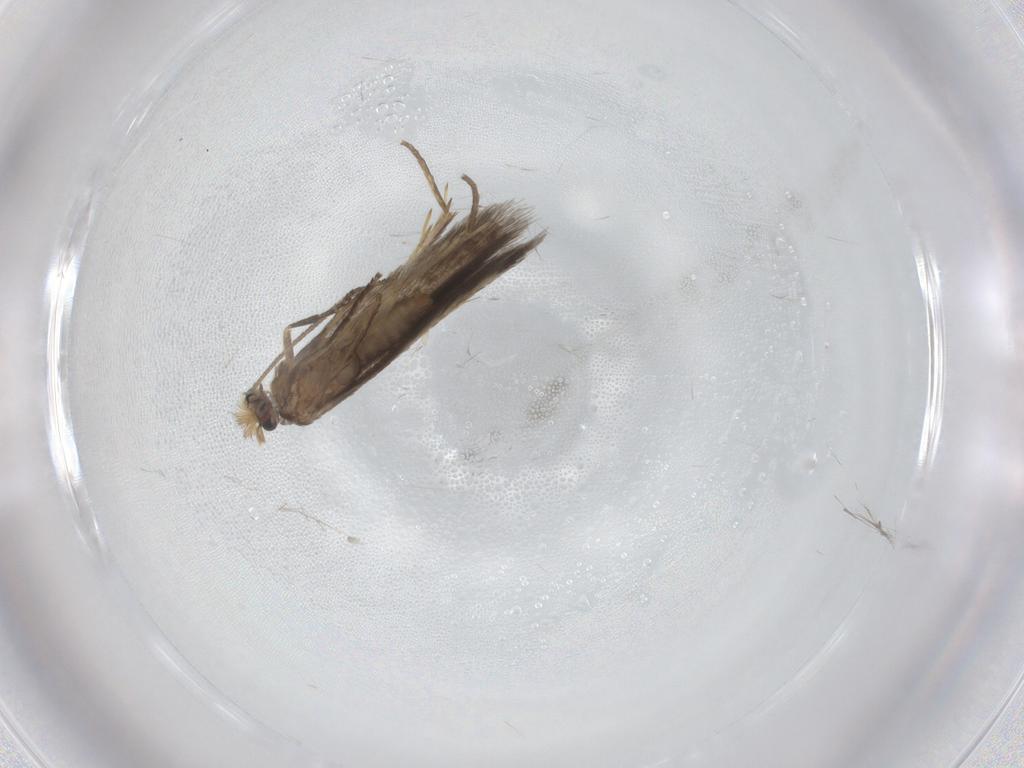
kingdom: Animalia
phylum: Arthropoda
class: Insecta
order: Lepidoptera
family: Nepticulidae
